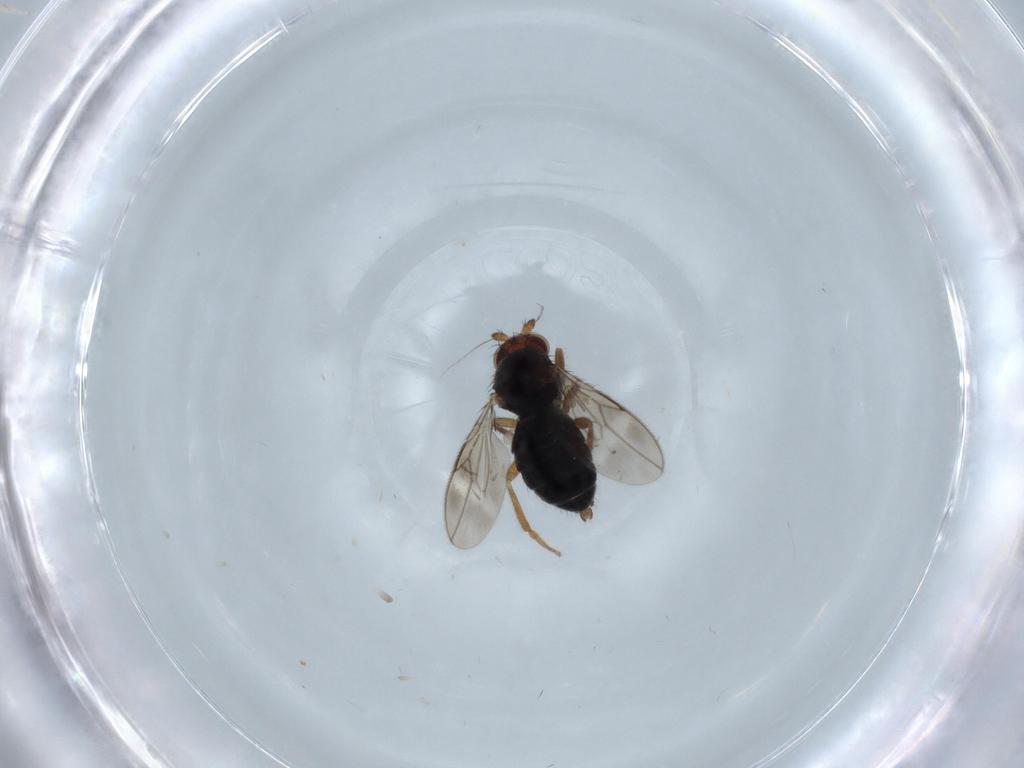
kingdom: Animalia
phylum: Arthropoda
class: Insecta
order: Diptera
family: Sphaeroceridae
